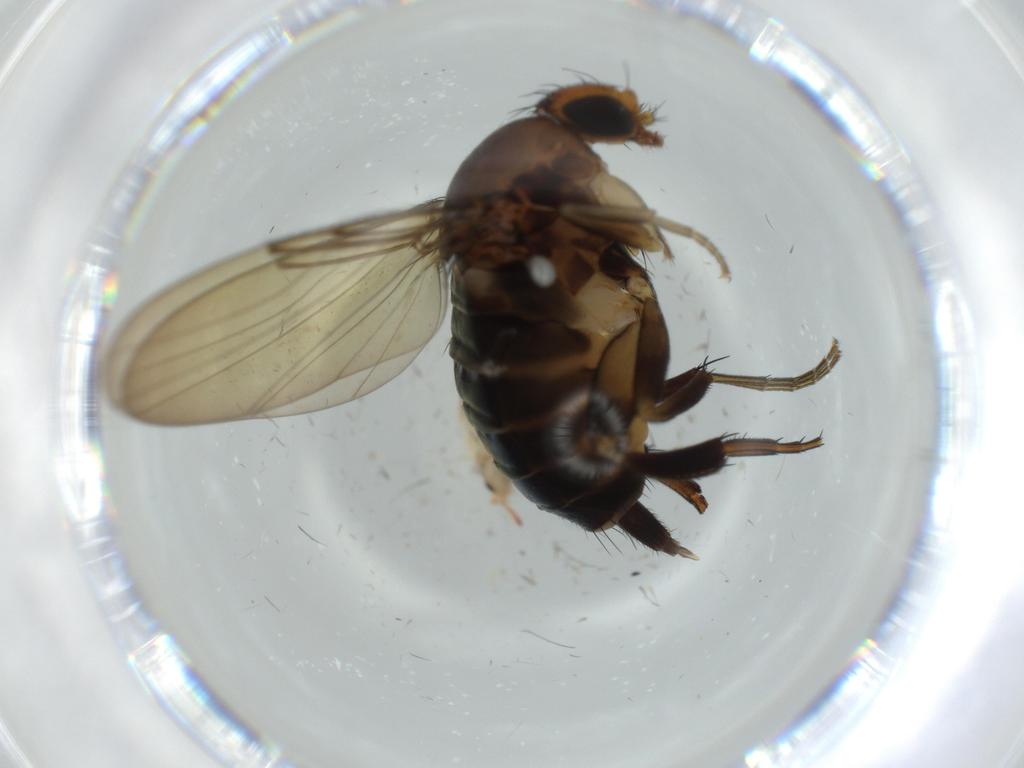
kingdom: Animalia
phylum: Arthropoda
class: Insecta
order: Diptera
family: Phoridae
